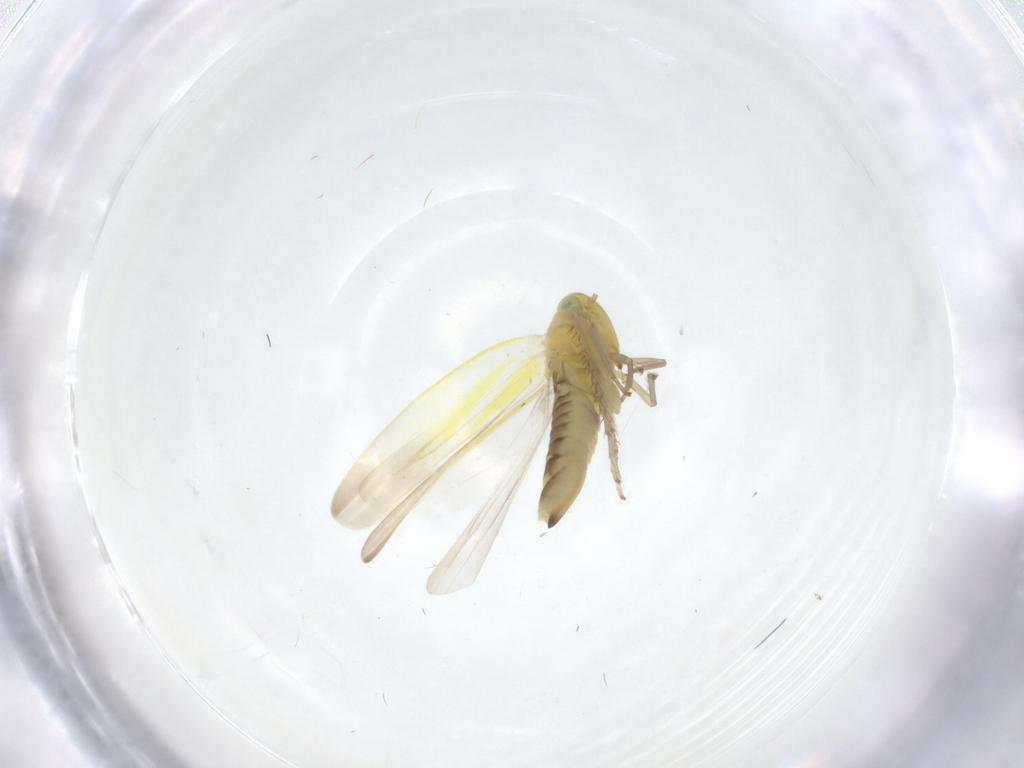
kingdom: Animalia
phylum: Arthropoda
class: Insecta
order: Hemiptera
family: Cicadellidae
